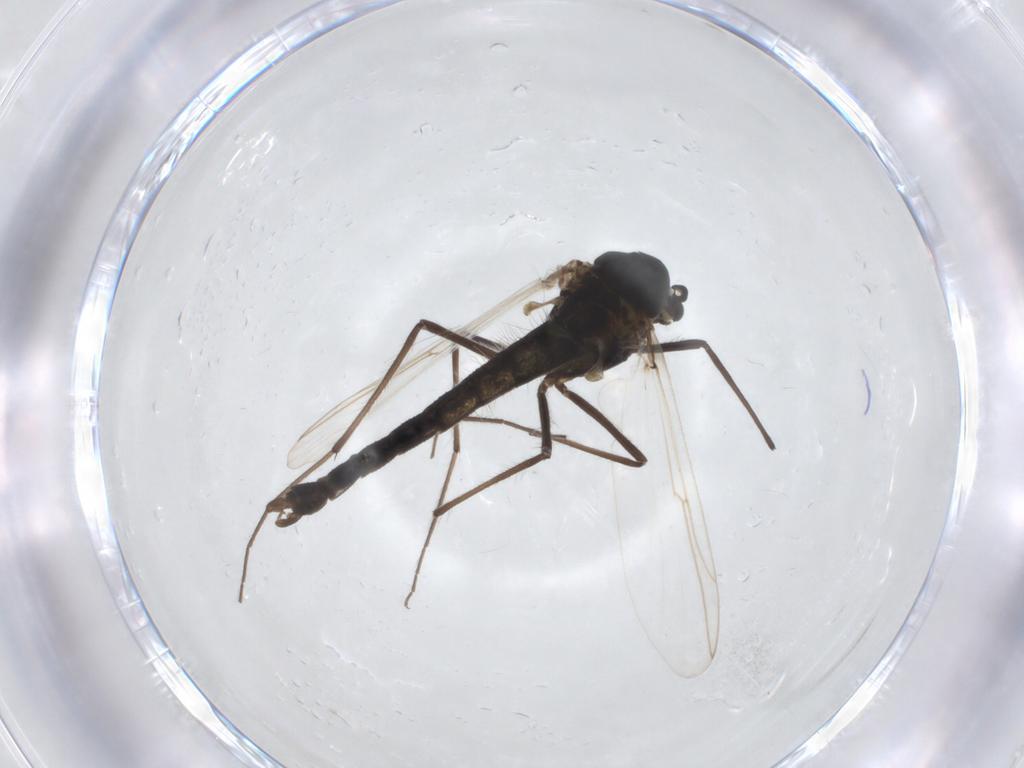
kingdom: Animalia
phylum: Arthropoda
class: Insecta
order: Diptera
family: Chironomidae
